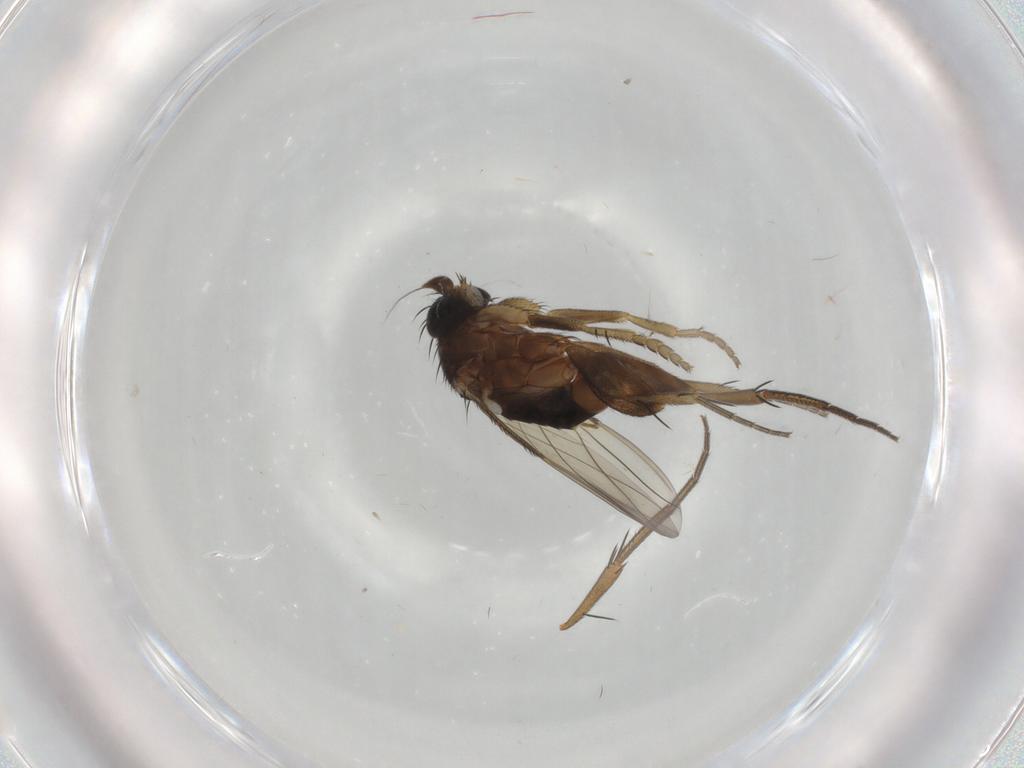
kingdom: Animalia
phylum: Arthropoda
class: Insecta
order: Diptera
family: Phoridae
